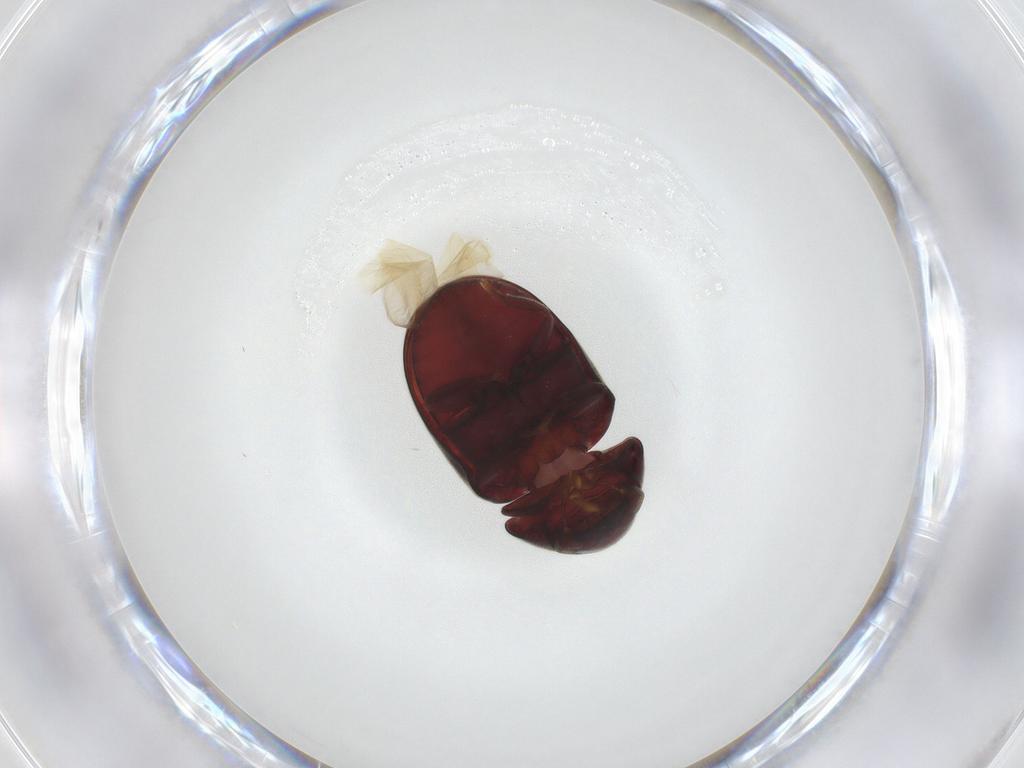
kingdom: Animalia
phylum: Arthropoda
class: Insecta
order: Coleoptera
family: Ptinidae
